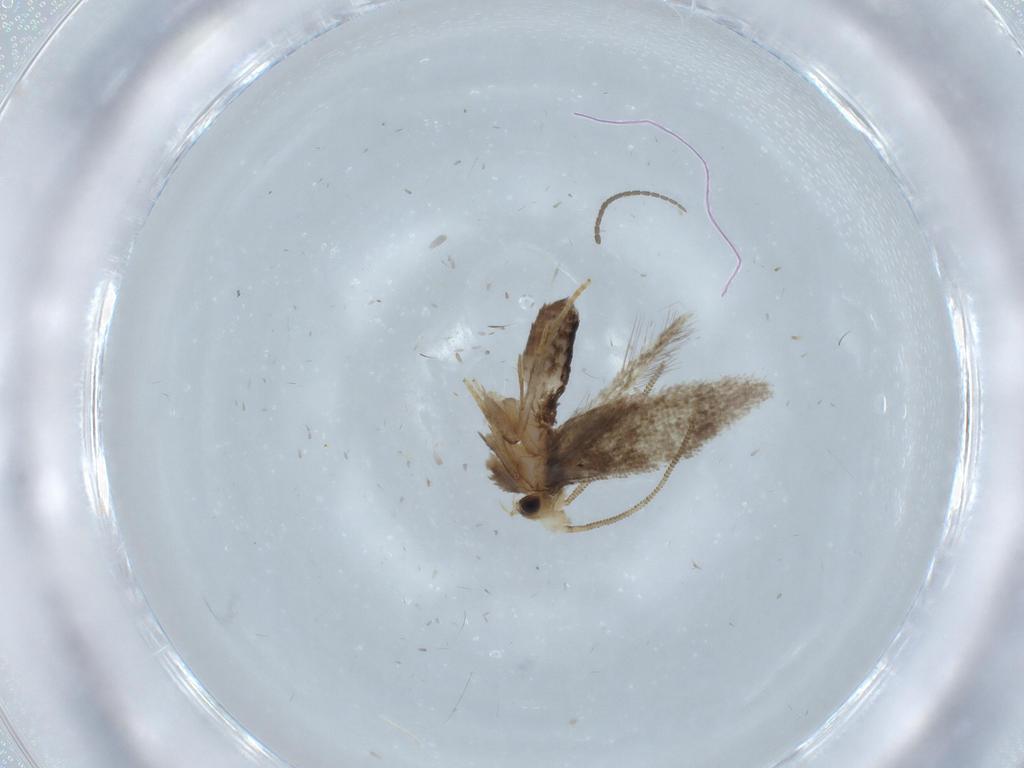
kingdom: Animalia
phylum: Arthropoda
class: Insecta
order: Lepidoptera
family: Nepticulidae
